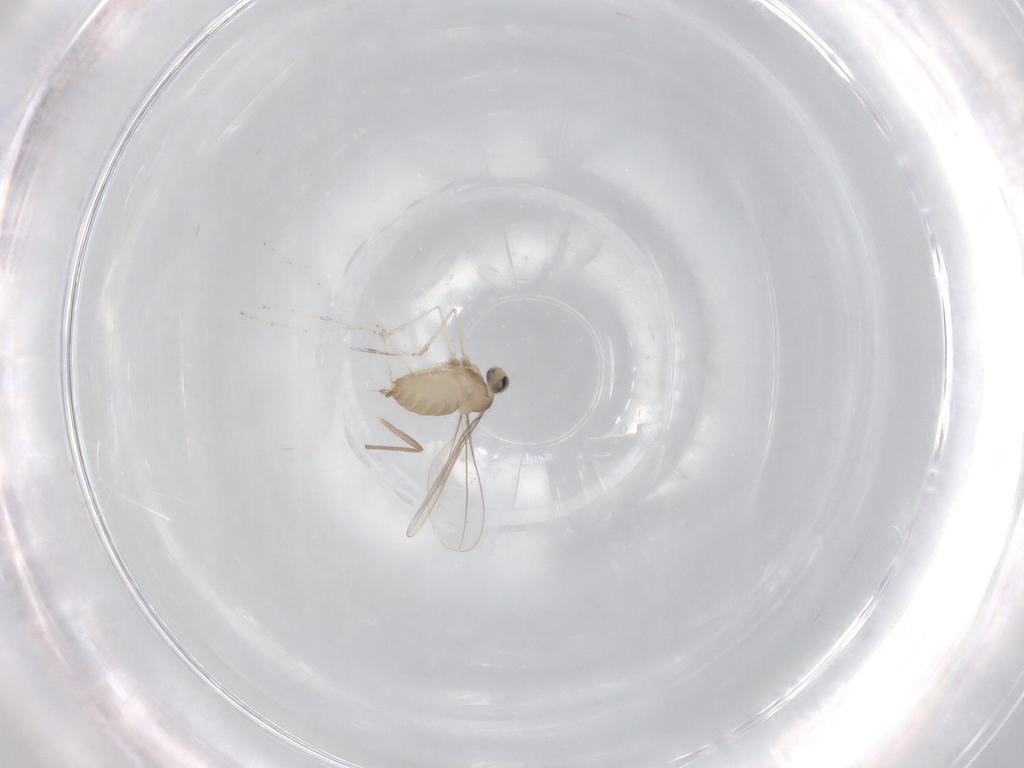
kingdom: Animalia
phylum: Arthropoda
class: Insecta
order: Diptera
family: Cecidomyiidae
